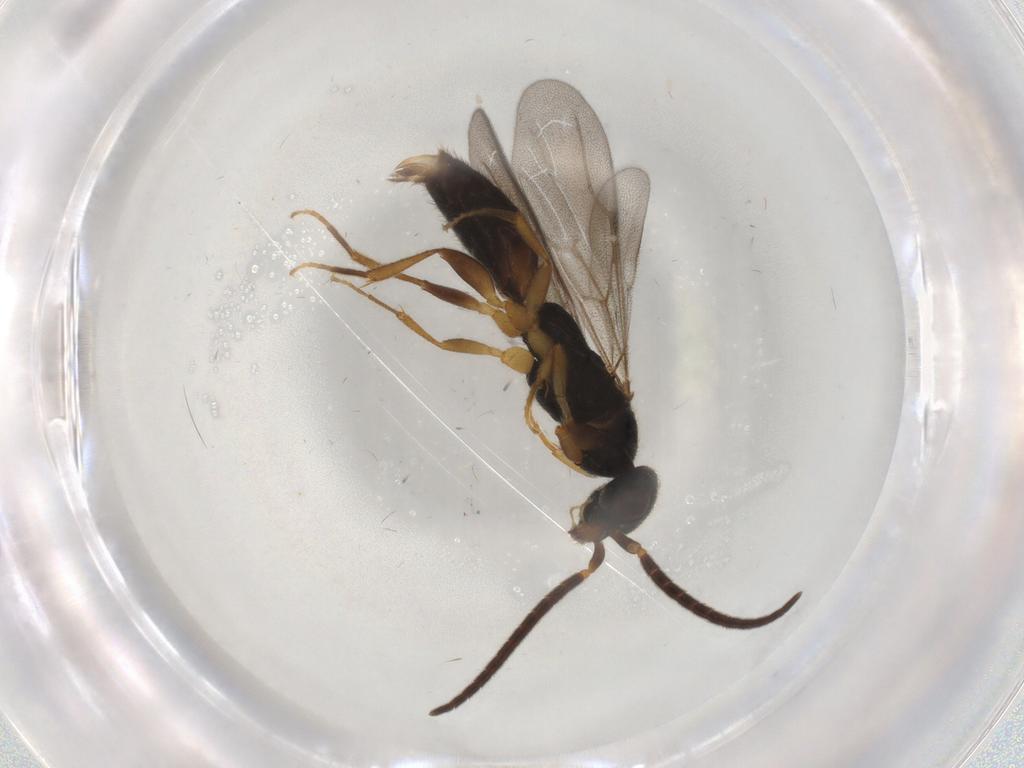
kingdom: Animalia
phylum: Arthropoda
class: Insecta
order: Hymenoptera
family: Bethylidae
